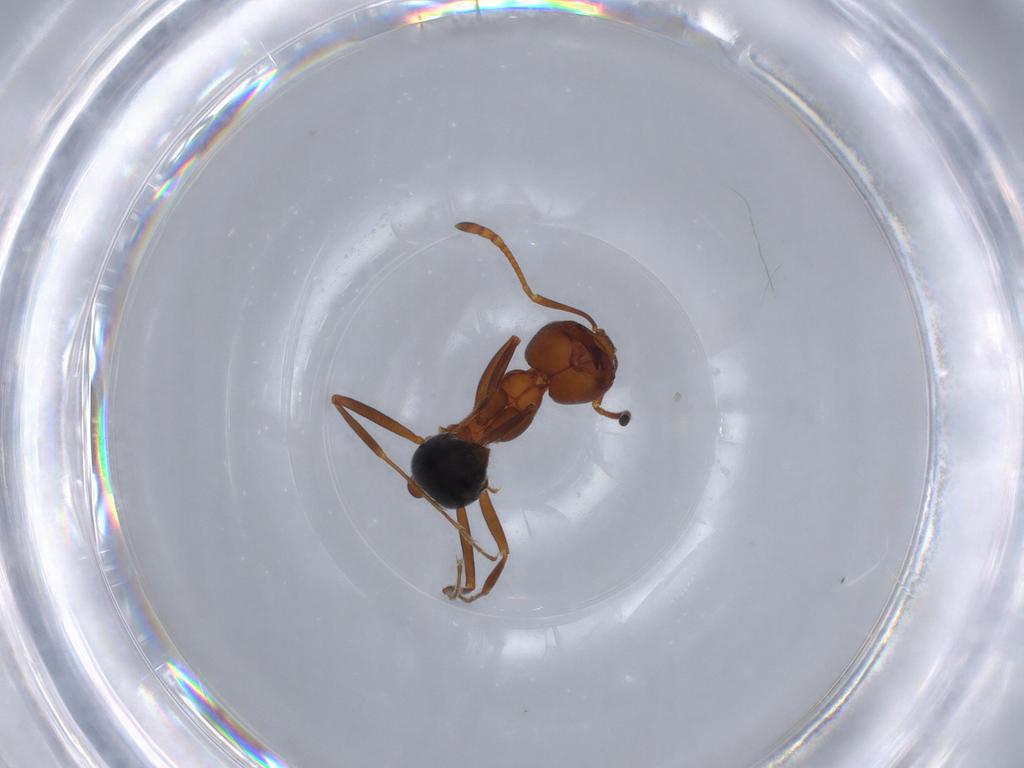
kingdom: Animalia
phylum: Arthropoda
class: Insecta
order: Hymenoptera
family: Formicidae
